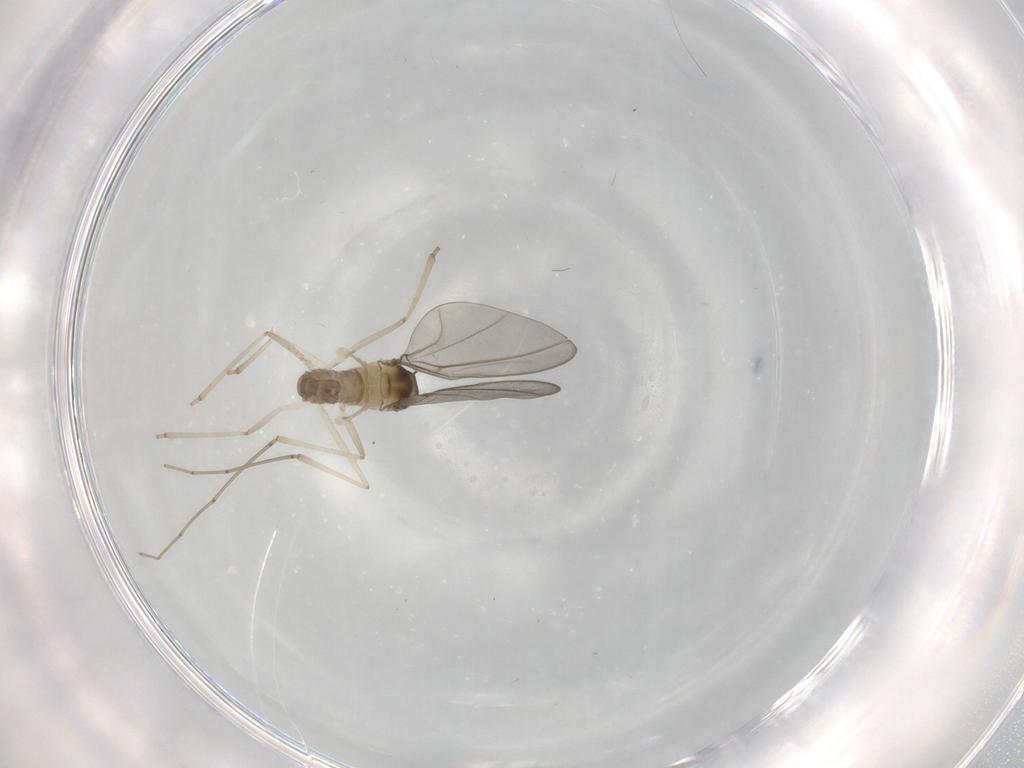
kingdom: Animalia
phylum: Arthropoda
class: Insecta
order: Diptera
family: Cecidomyiidae
